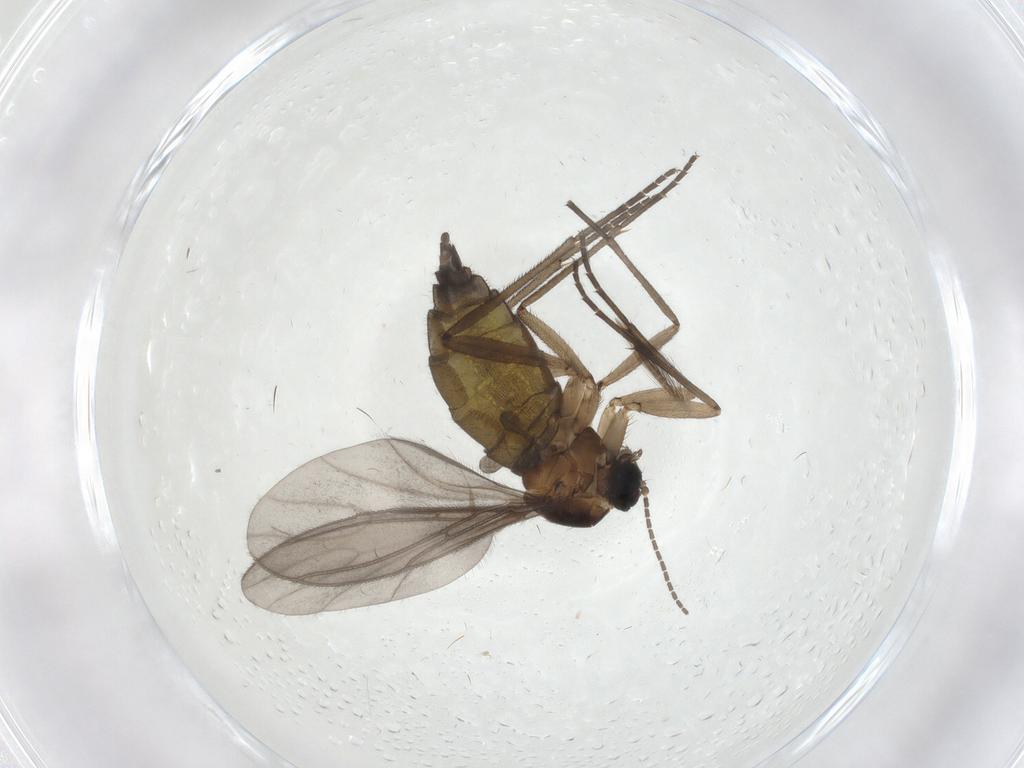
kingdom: Animalia
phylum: Arthropoda
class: Insecta
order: Diptera
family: Sciaridae
